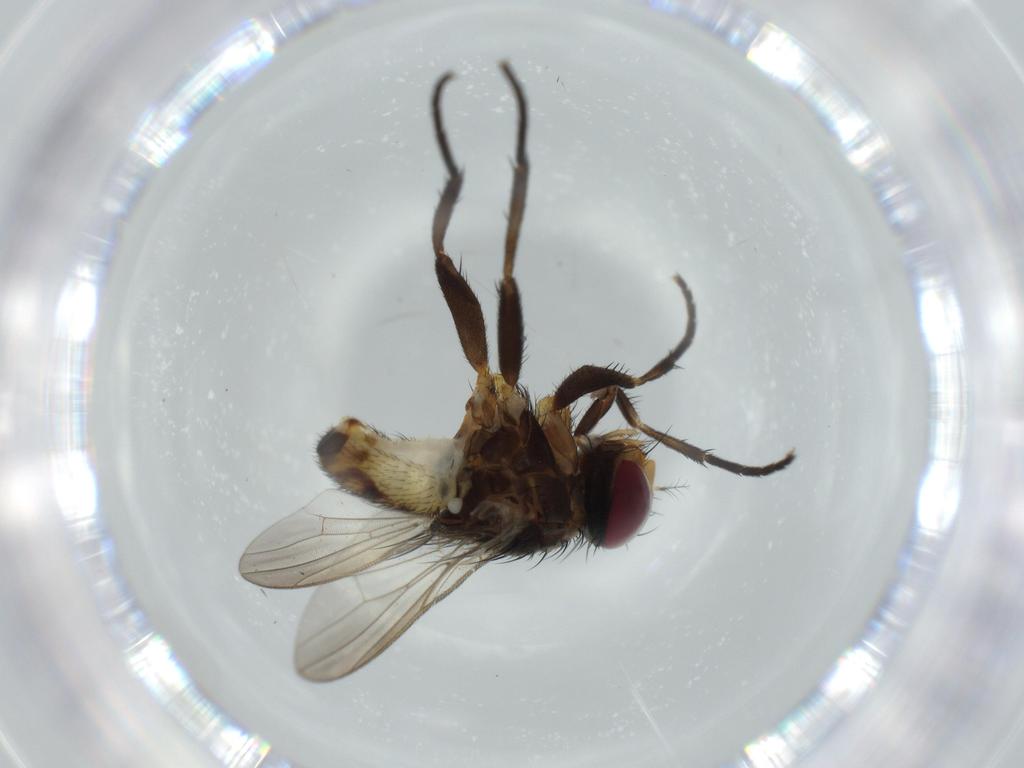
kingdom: Animalia
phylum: Arthropoda
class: Insecta
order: Diptera
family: Anthomyiidae
